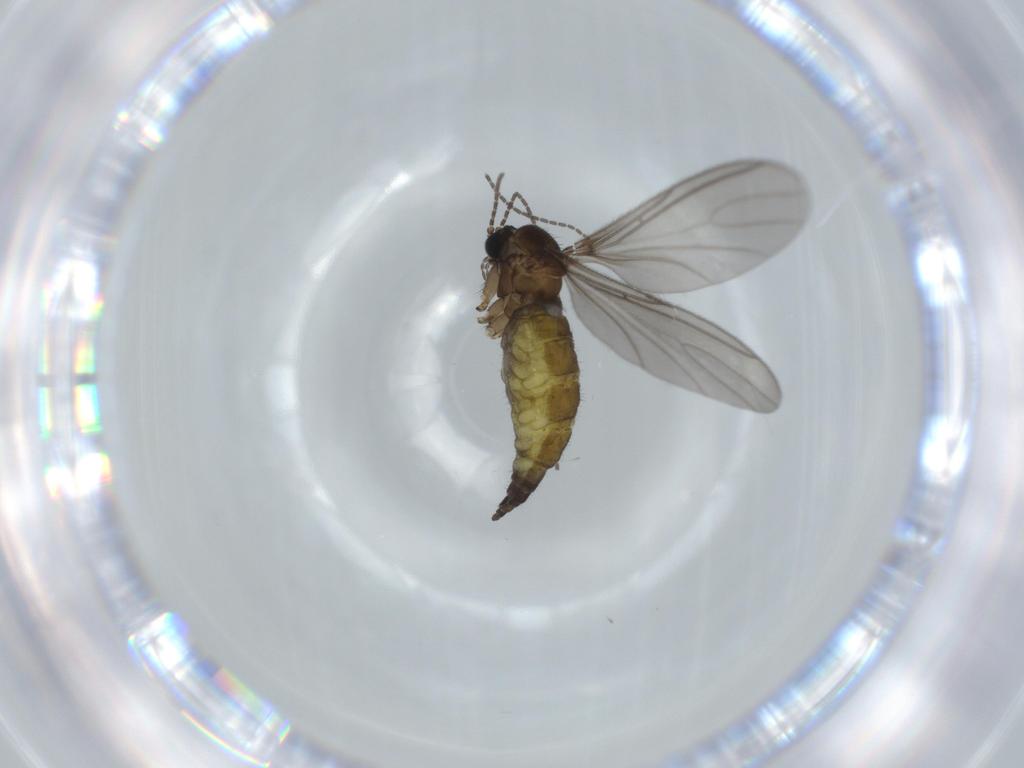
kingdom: Animalia
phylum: Arthropoda
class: Insecta
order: Diptera
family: Sciaridae
